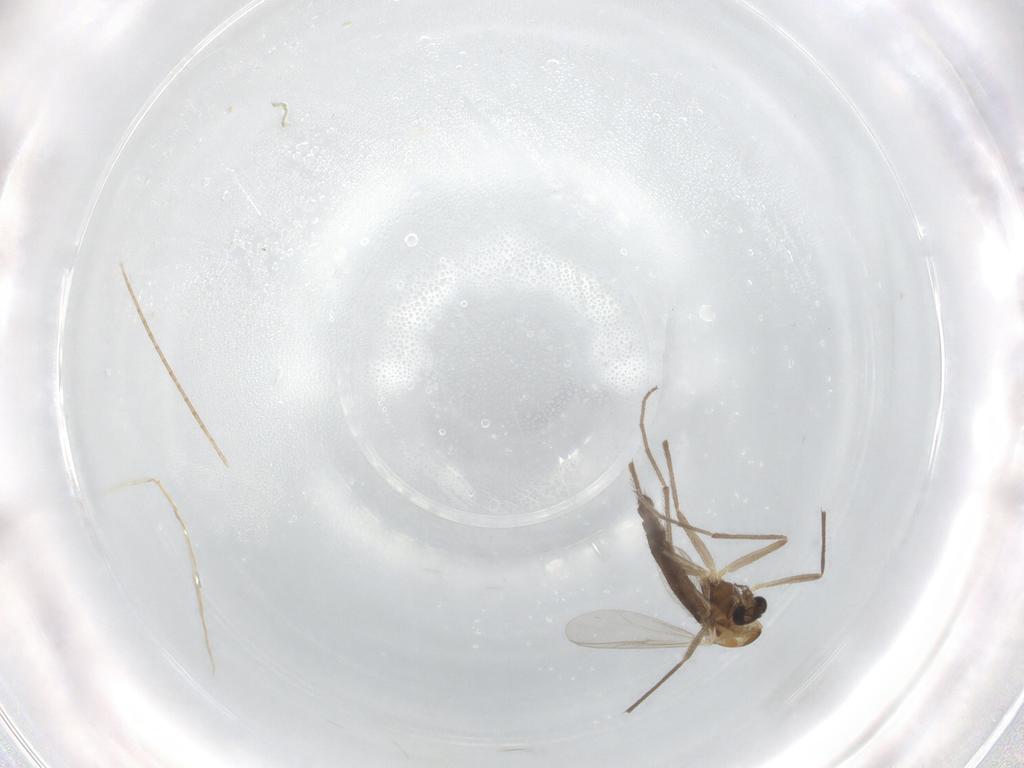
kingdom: Animalia
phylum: Arthropoda
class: Insecta
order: Diptera
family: Chironomidae
